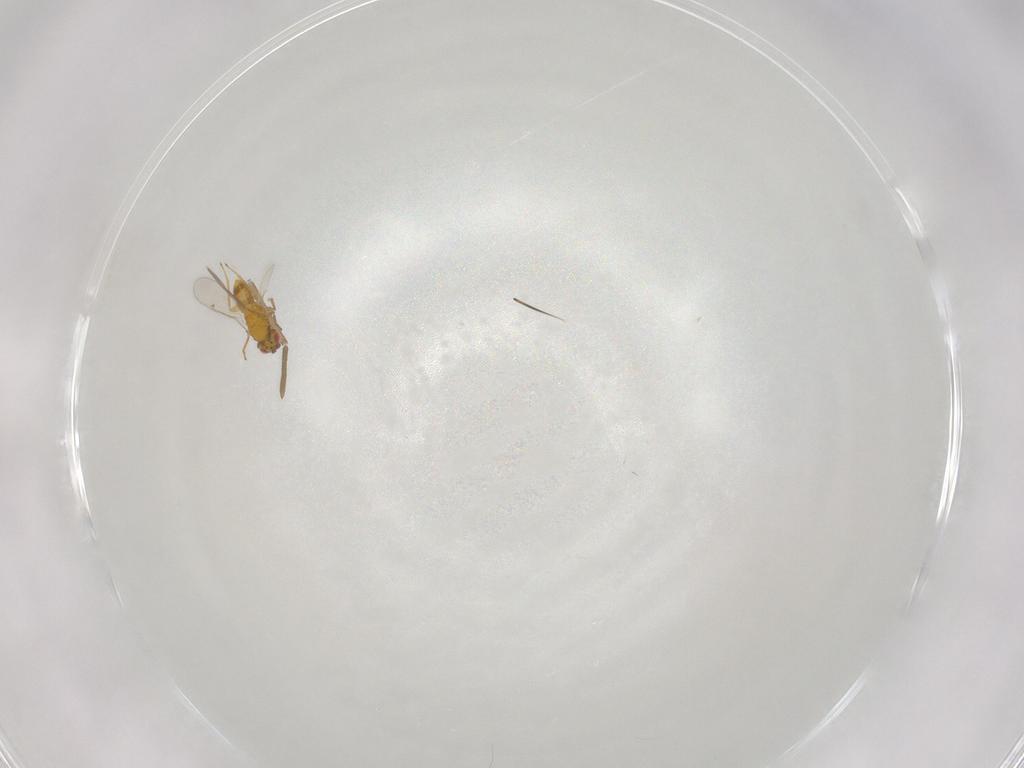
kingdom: Animalia
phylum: Arthropoda
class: Insecta
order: Hymenoptera
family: Aphelinidae
